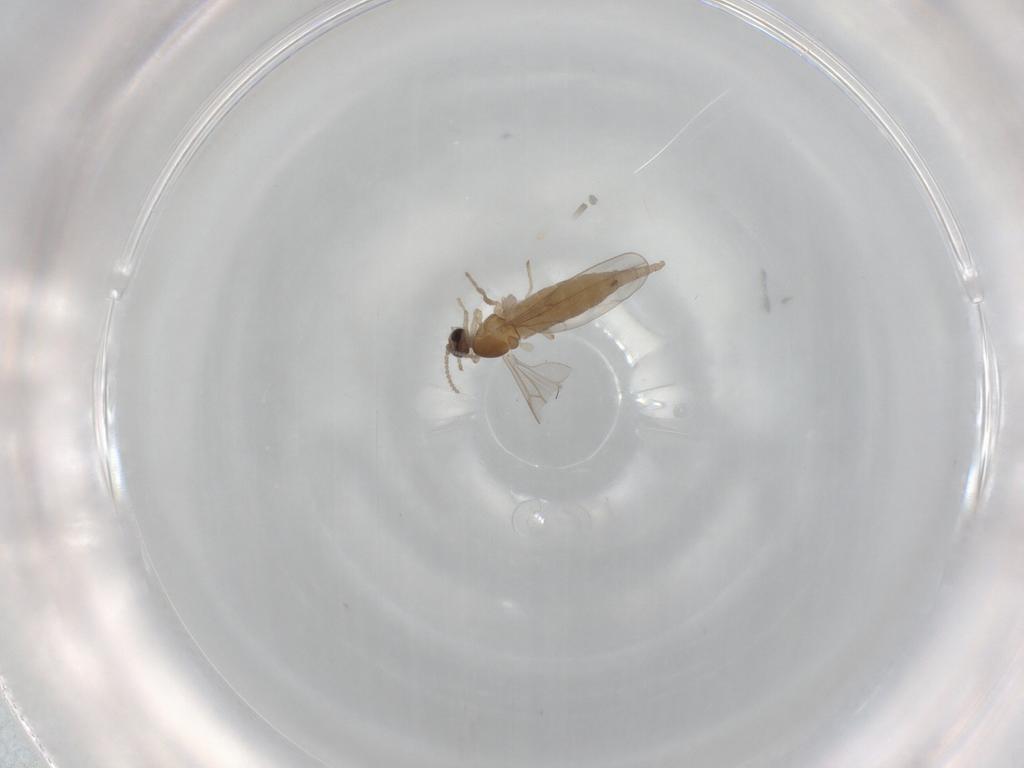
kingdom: Animalia
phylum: Arthropoda
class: Insecta
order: Diptera
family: Cecidomyiidae
